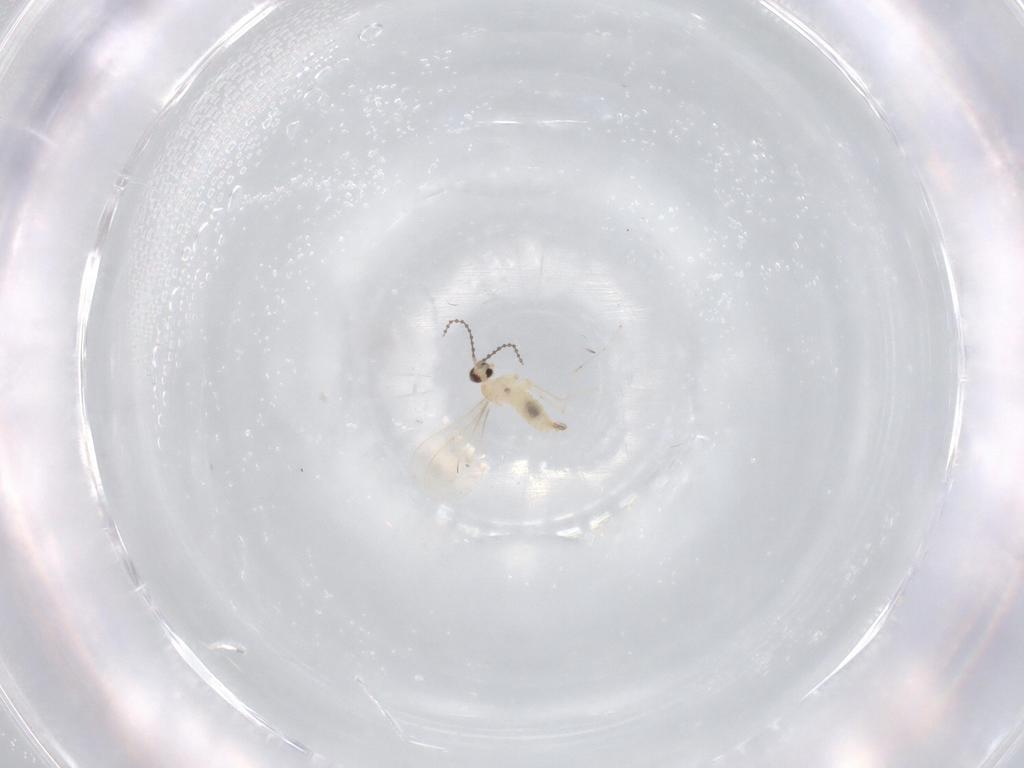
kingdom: Animalia
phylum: Arthropoda
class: Insecta
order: Diptera
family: Cecidomyiidae
